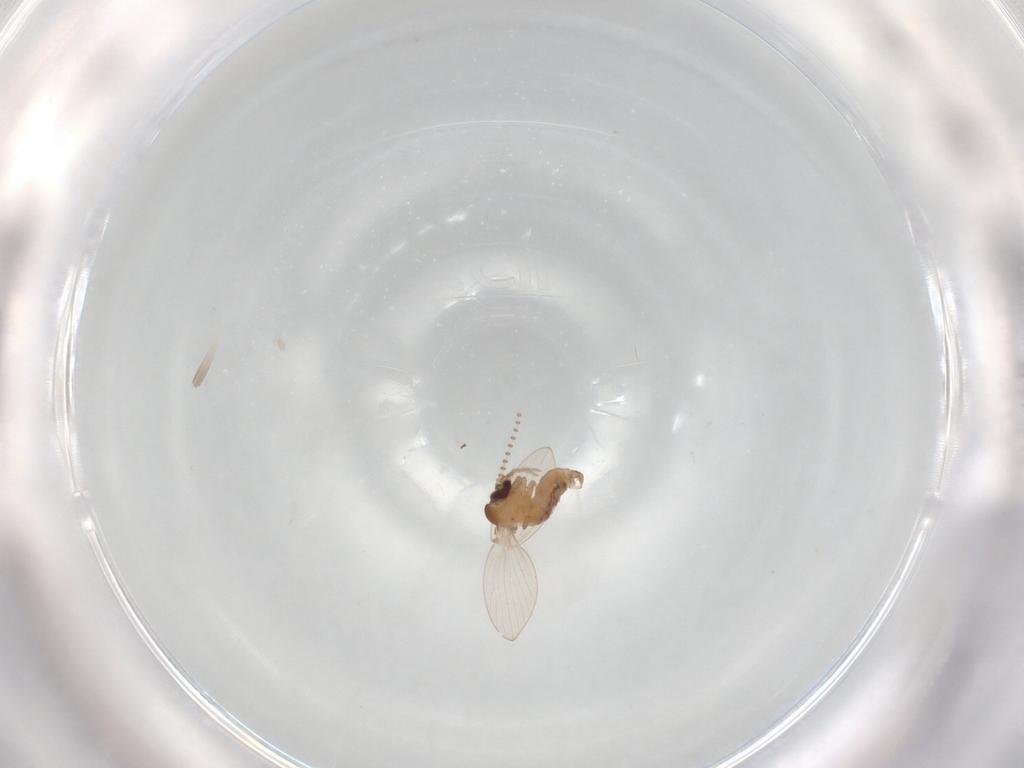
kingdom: Animalia
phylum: Arthropoda
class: Insecta
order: Diptera
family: Psychodidae
